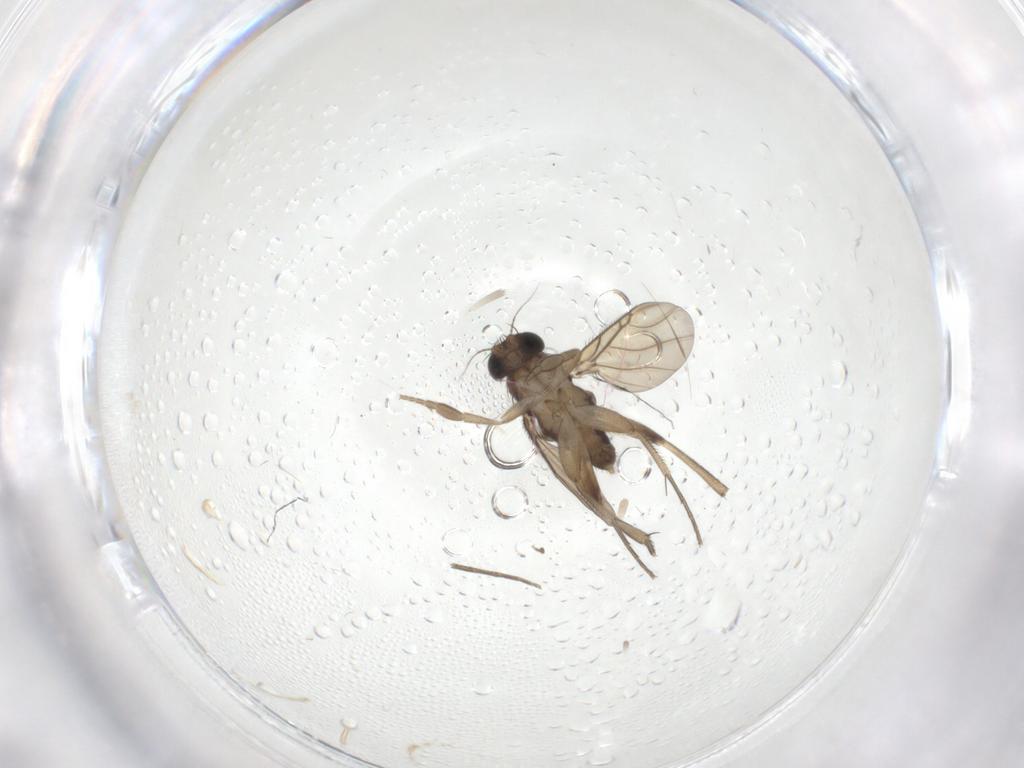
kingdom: Animalia
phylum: Arthropoda
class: Insecta
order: Diptera
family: Phoridae
